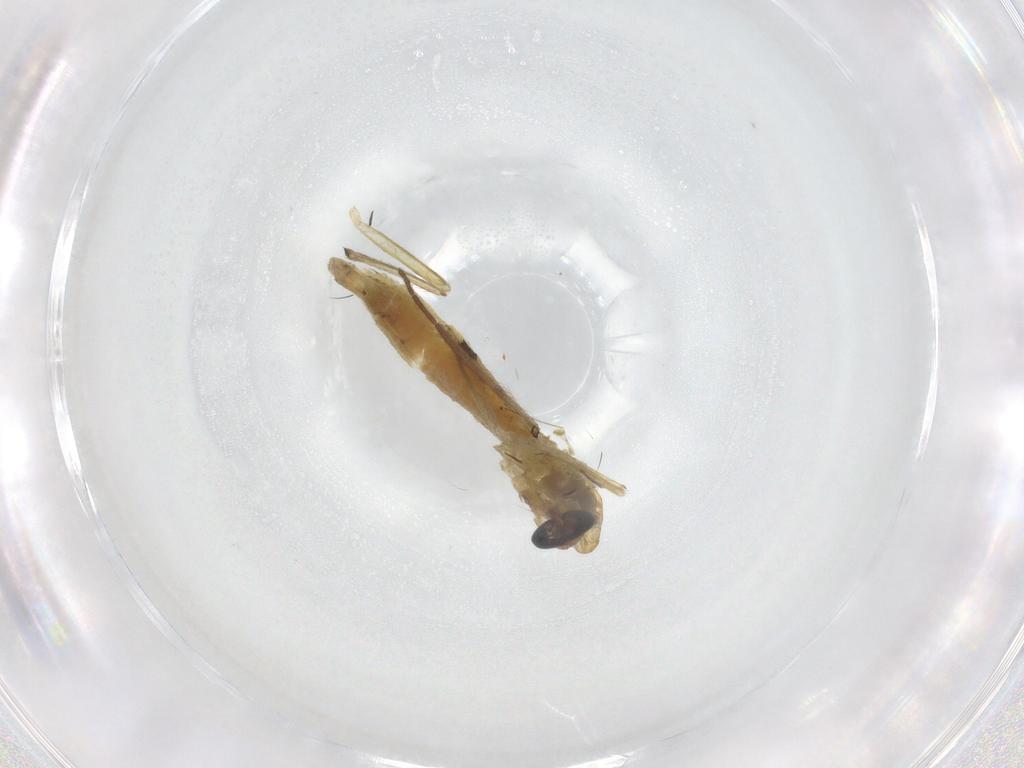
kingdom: Animalia
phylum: Arthropoda
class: Insecta
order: Diptera
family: Chironomidae
